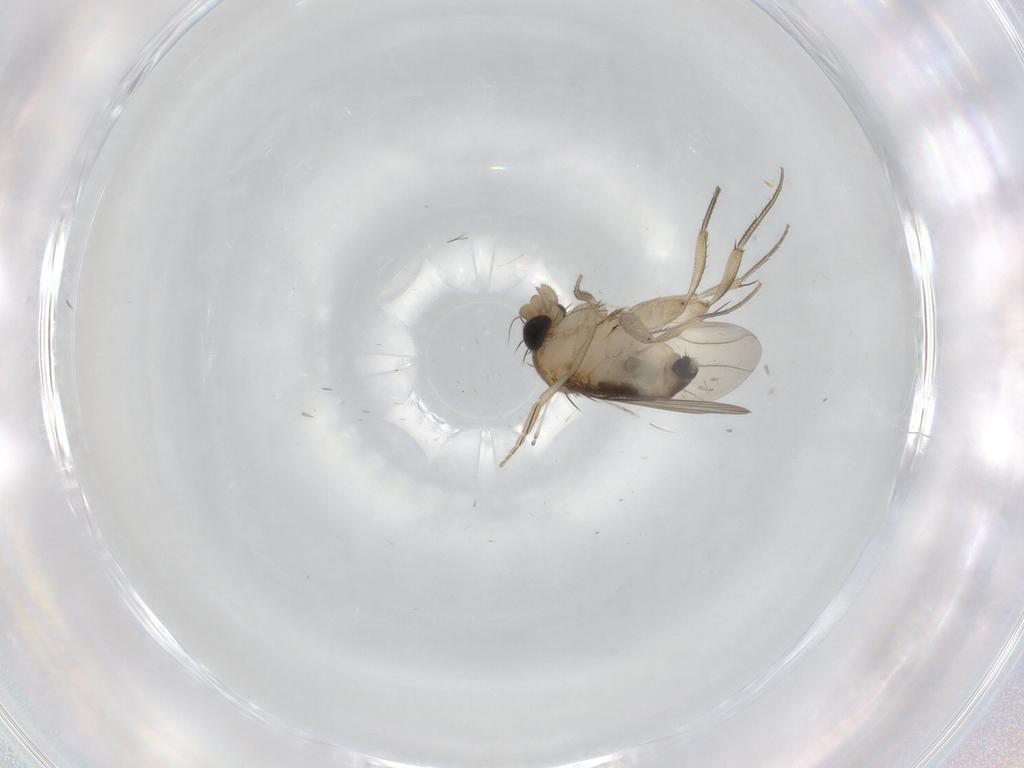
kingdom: Animalia
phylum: Arthropoda
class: Insecta
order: Diptera
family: Phoridae
